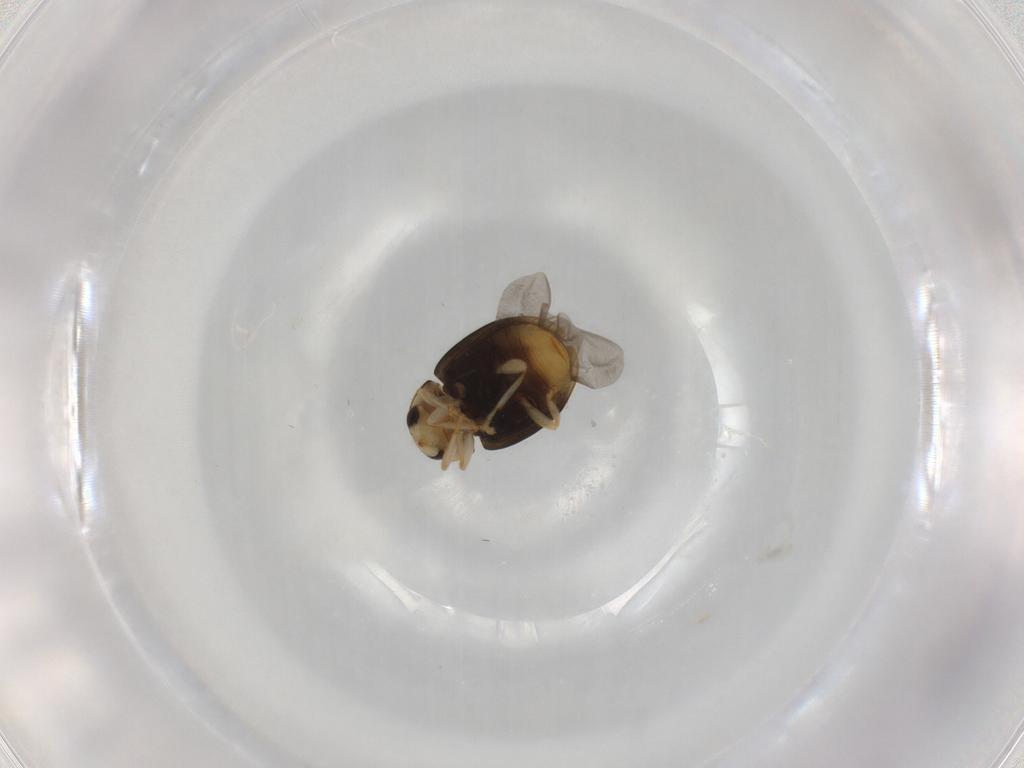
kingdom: Animalia
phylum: Arthropoda
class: Insecta
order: Coleoptera
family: Coccinellidae
